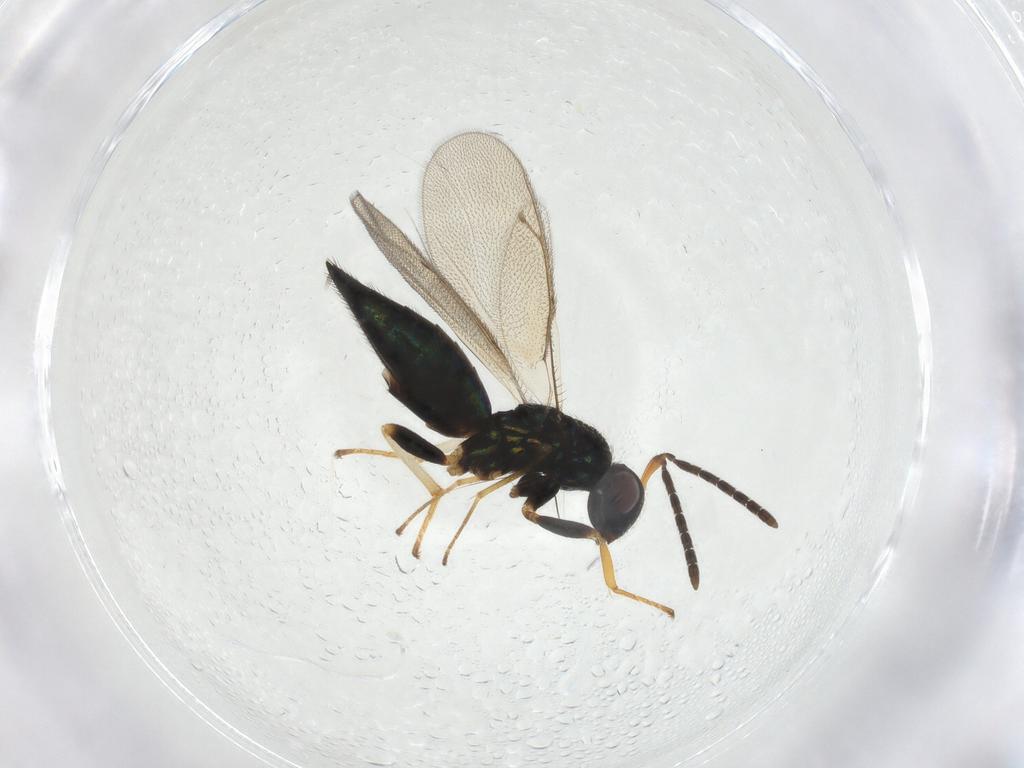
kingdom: Animalia
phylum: Arthropoda
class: Insecta
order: Hymenoptera
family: Pteromalidae
